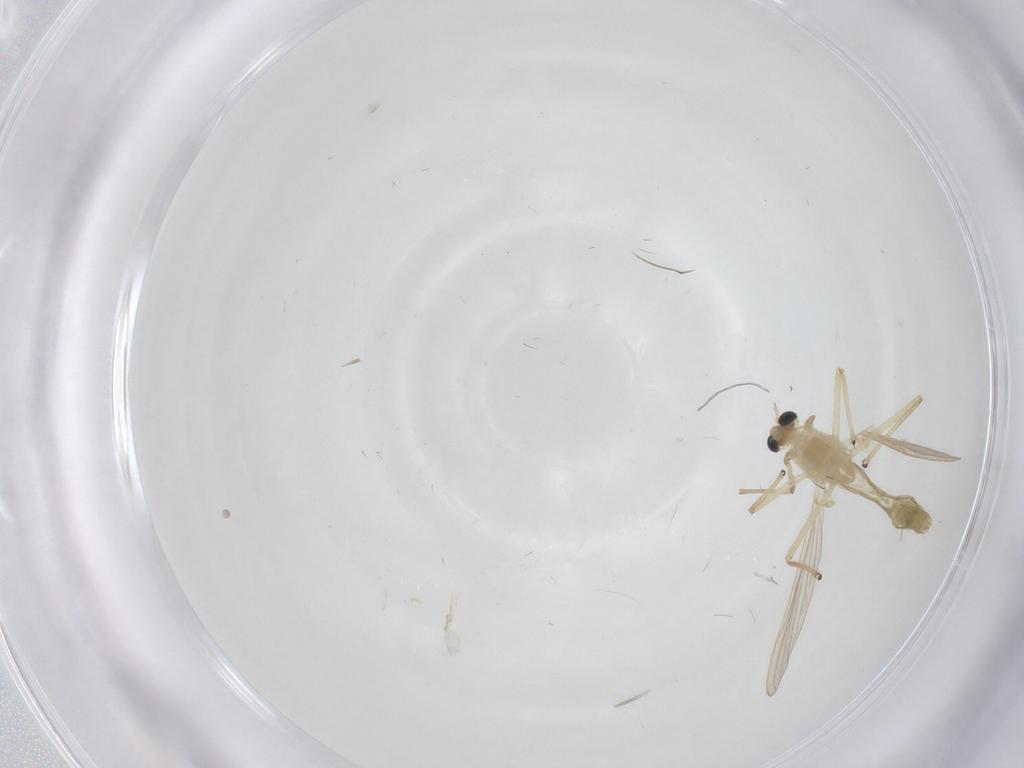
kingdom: Animalia
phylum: Arthropoda
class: Insecta
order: Diptera
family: Chironomidae
